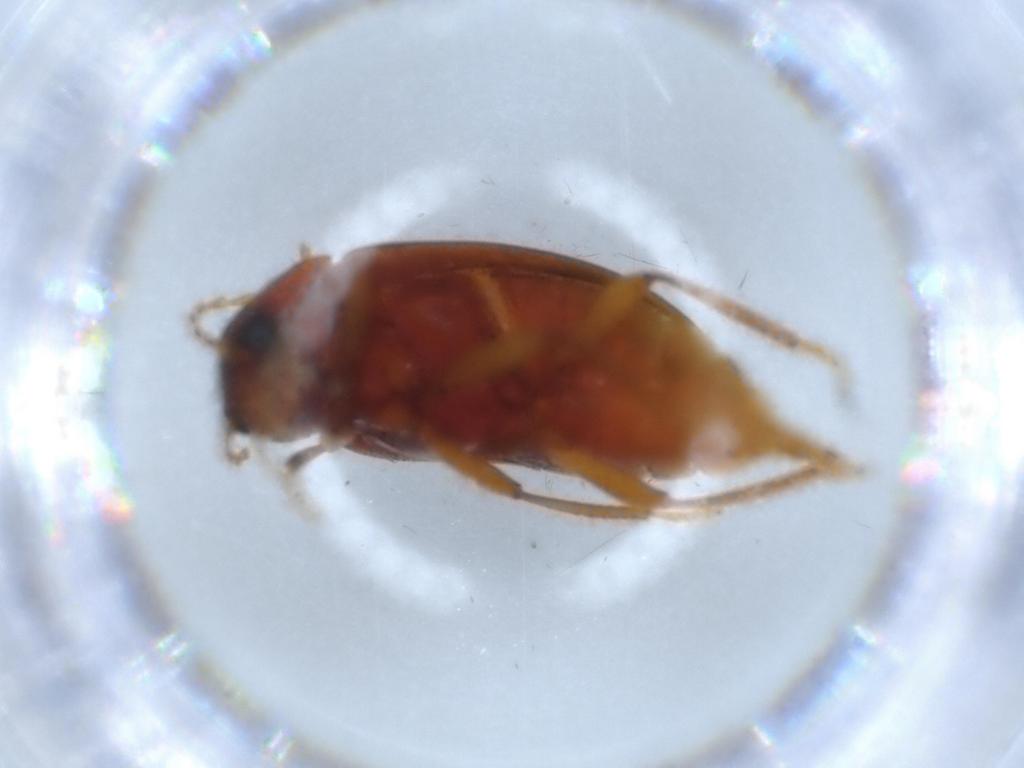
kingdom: Animalia
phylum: Arthropoda
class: Insecta
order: Coleoptera
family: Ptilodactylidae
